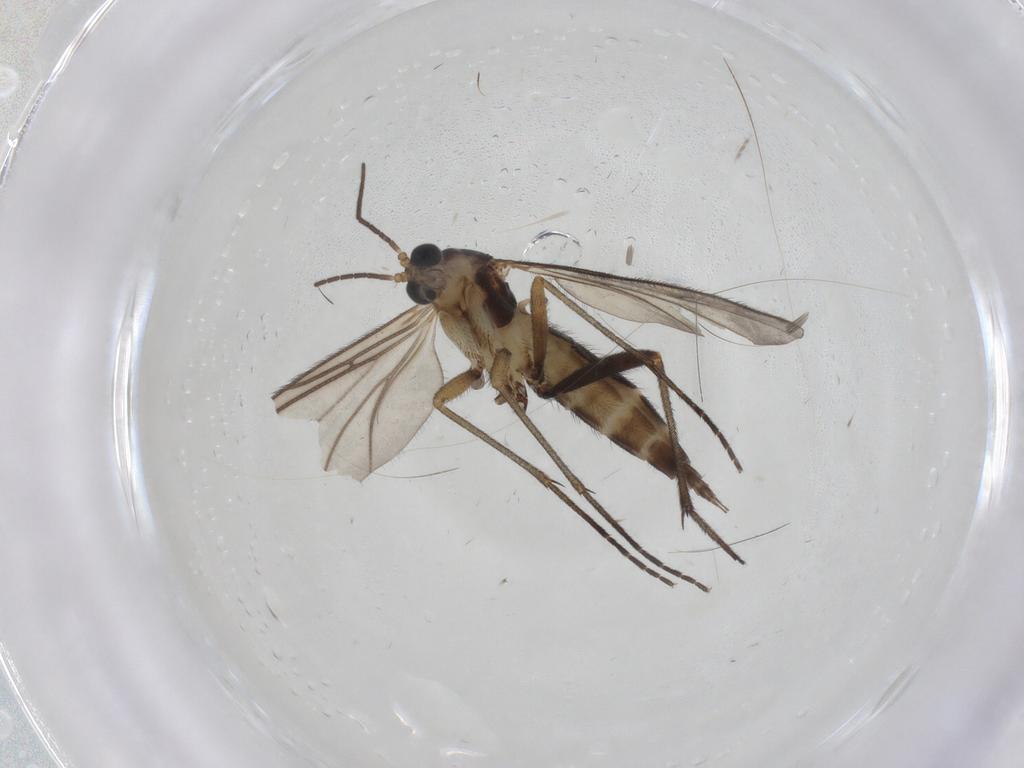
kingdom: Animalia
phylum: Arthropoda
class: Insecta
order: Diptera
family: Sciaridae
